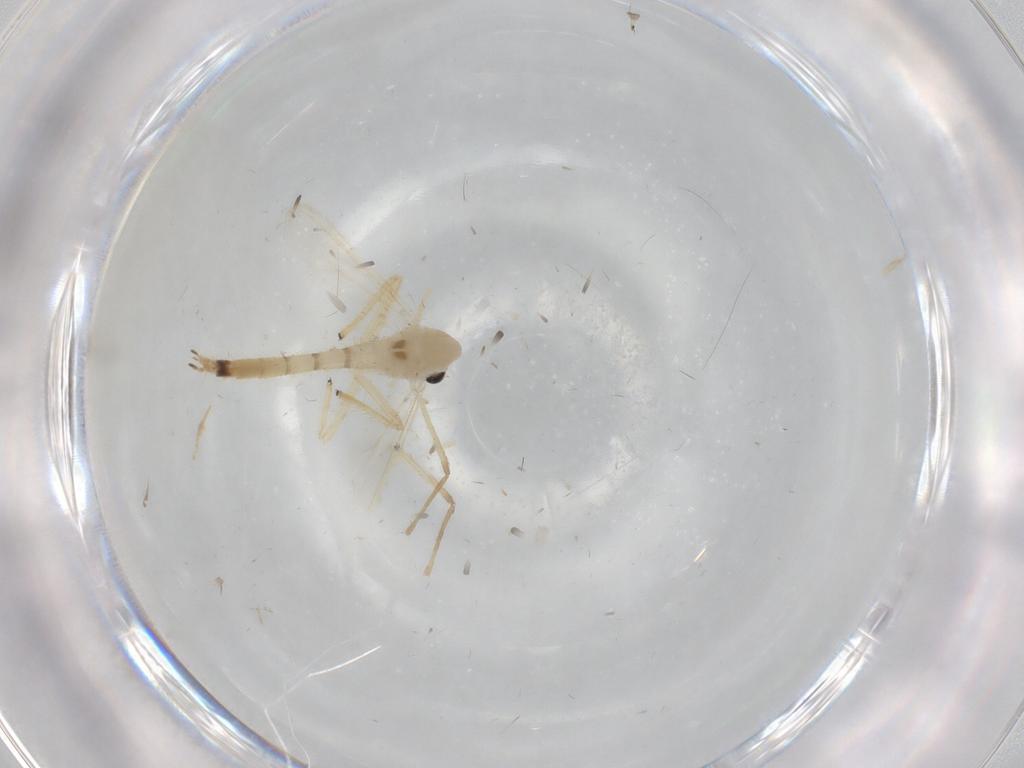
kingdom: Animalia
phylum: Arthropoda
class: Insecta
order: Diptera
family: Chironomidae
